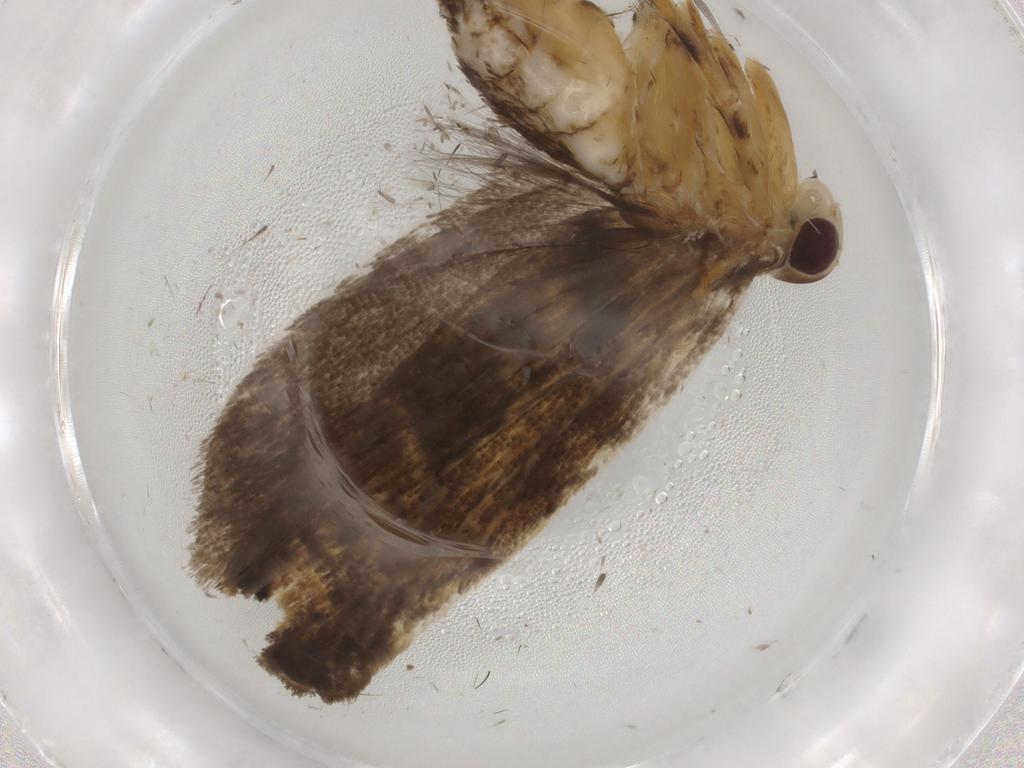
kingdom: Animalia
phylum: Arthropoda
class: Insecta
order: Lepidoptera
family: Gelechiidae
